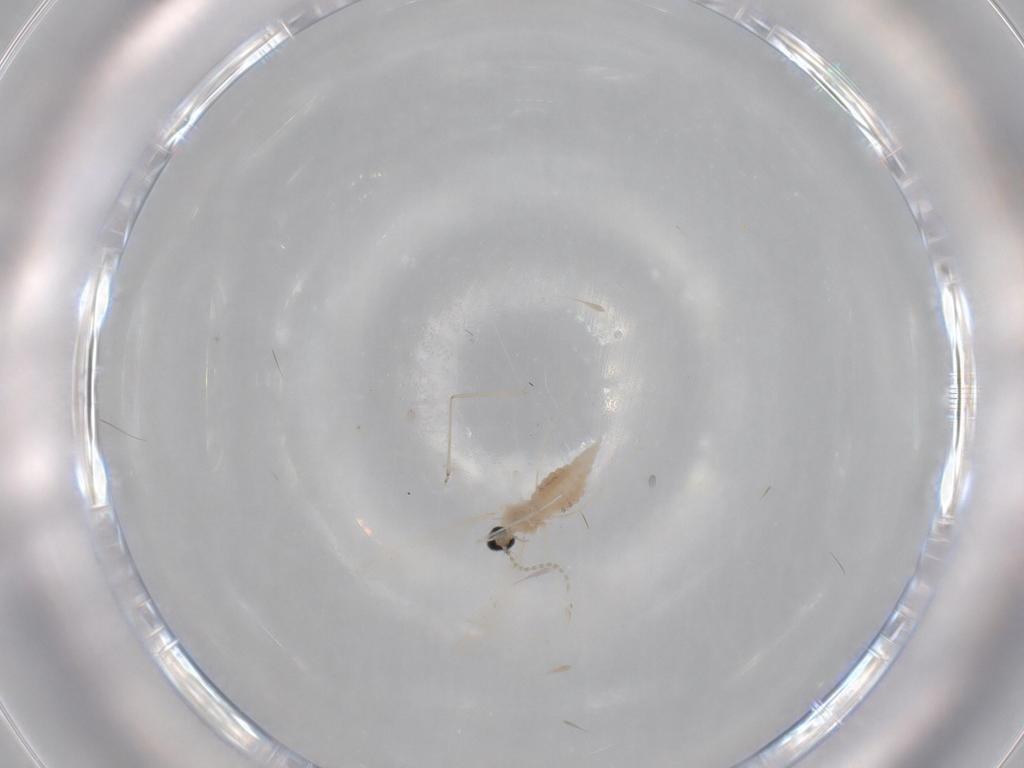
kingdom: Animalia
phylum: Arthropoda
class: Insecta
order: Diptera
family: Cecidomyiidae
